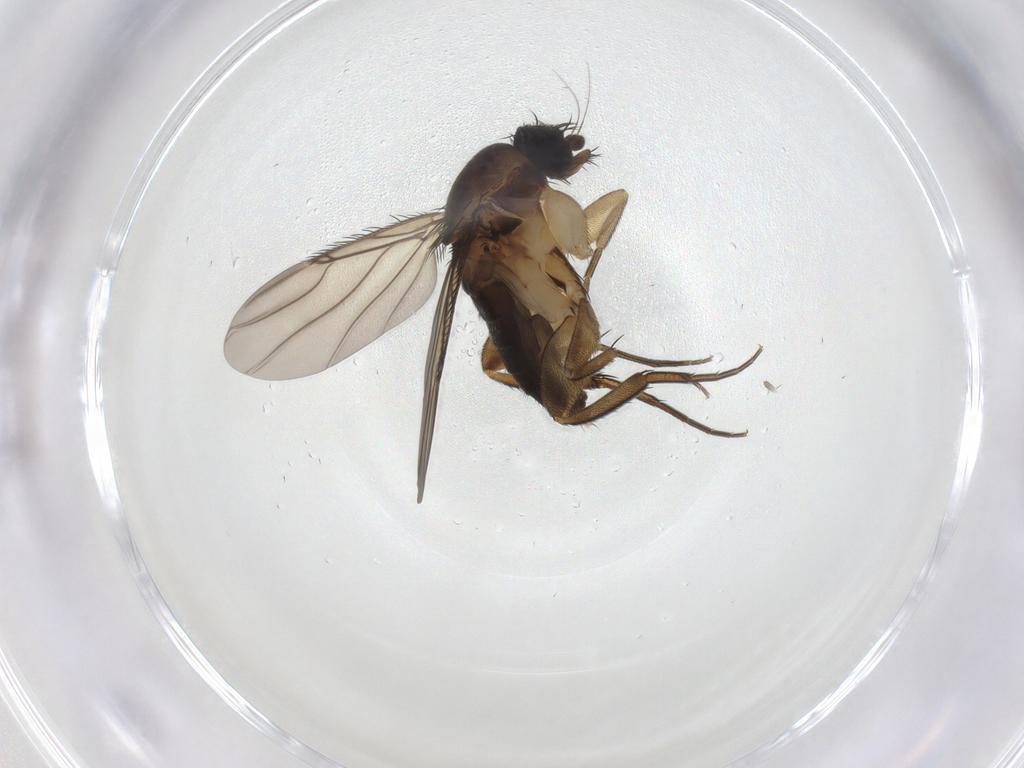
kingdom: Animalia
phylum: Arthropoda
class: Insecta
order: Diptera
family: Phoridae
